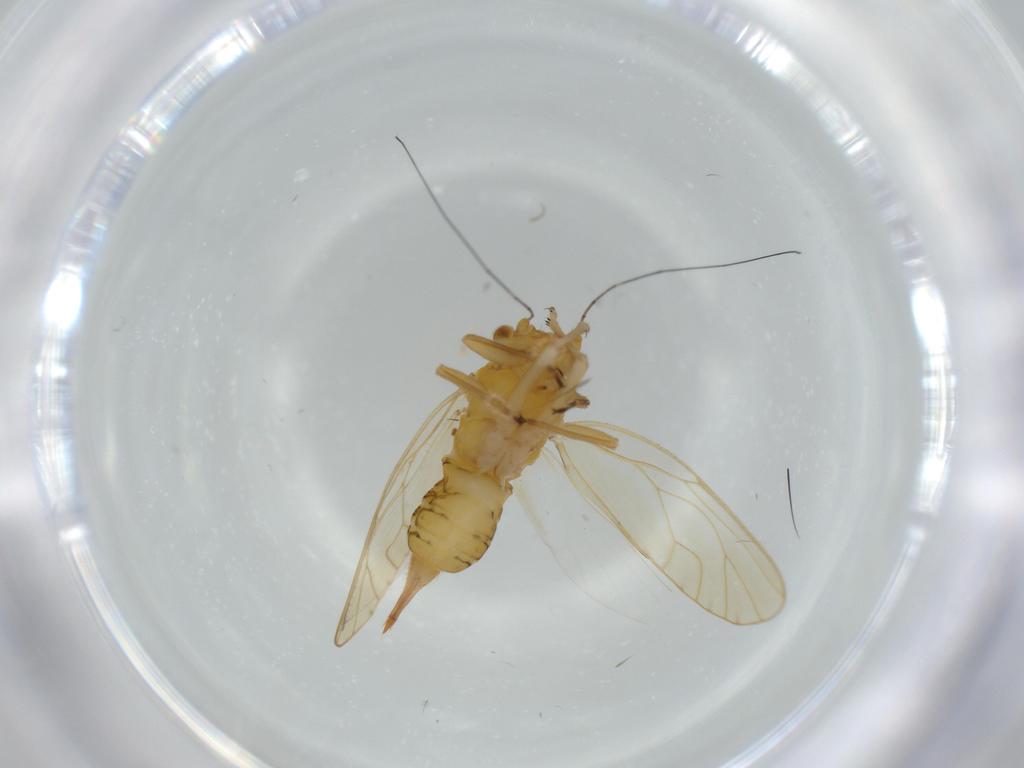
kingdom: Animalia
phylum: Arthropoda
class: Insecta
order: Hemiptera
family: Psyllidae
